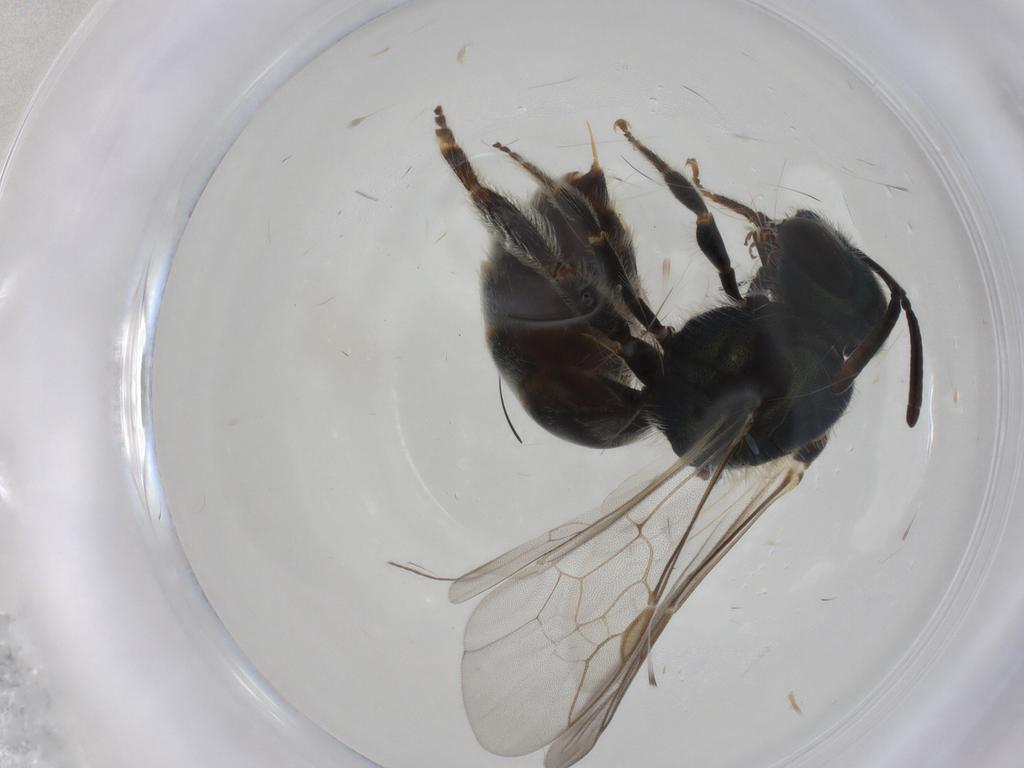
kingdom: Animalia
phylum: Arthropoda
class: Insecta
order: Hymenoptera
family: Halictidae
